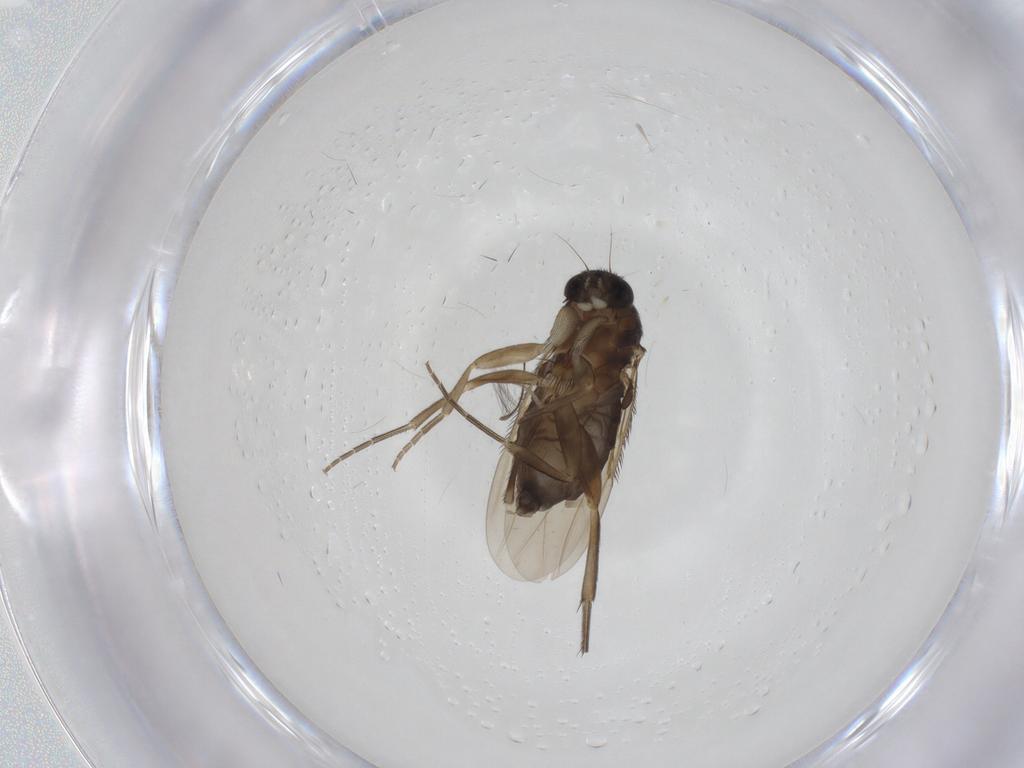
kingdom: Animalia
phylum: Arthropoda
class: Insecta
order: Diptera
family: Phoridae
